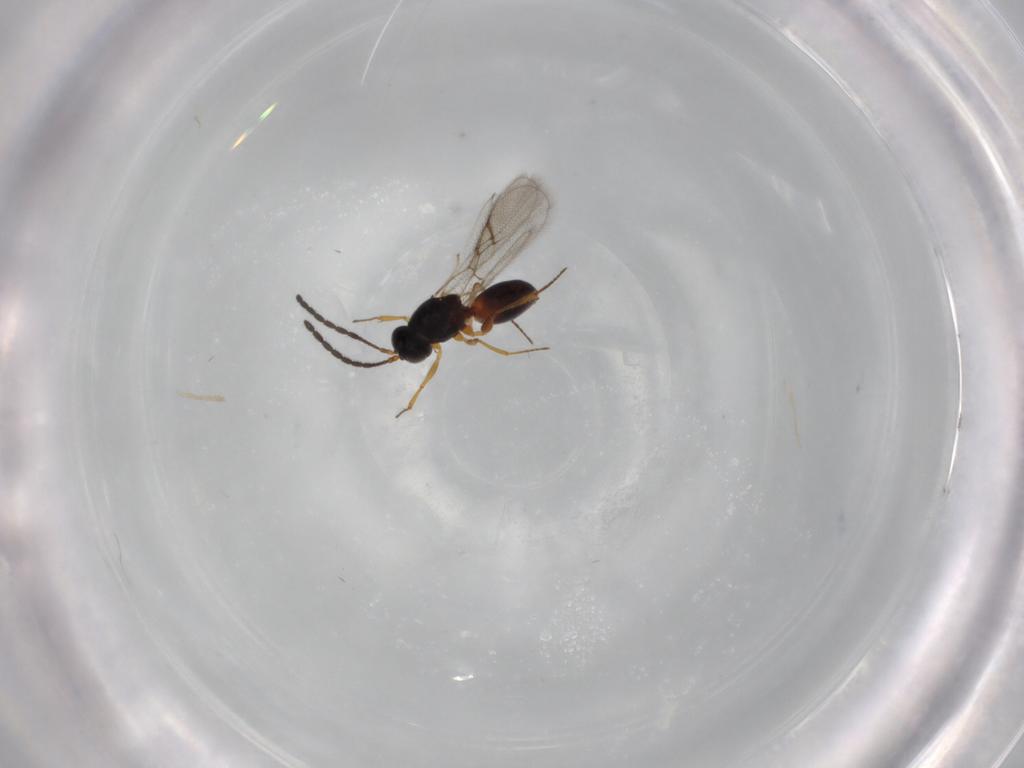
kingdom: Animalia
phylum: Arthropoda
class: Insecta
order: Hymenoptera
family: Figitidae
